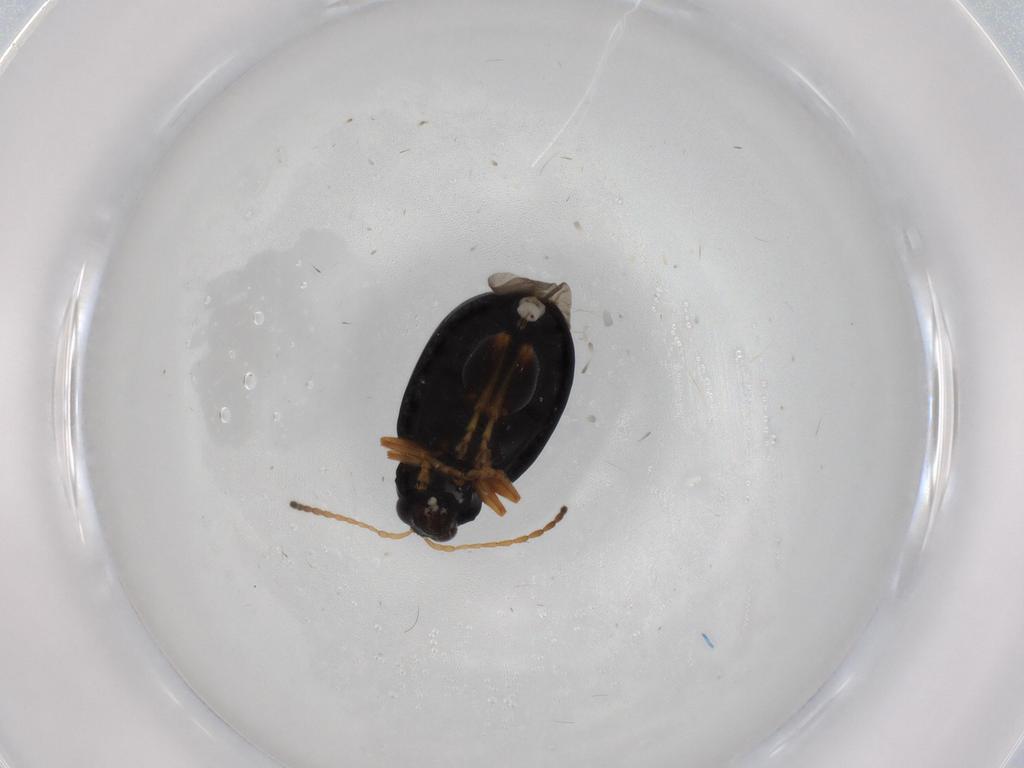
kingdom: Animalia
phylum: Arthropoda
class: Insecta
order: Coleoptera
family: Chrysomelidae
